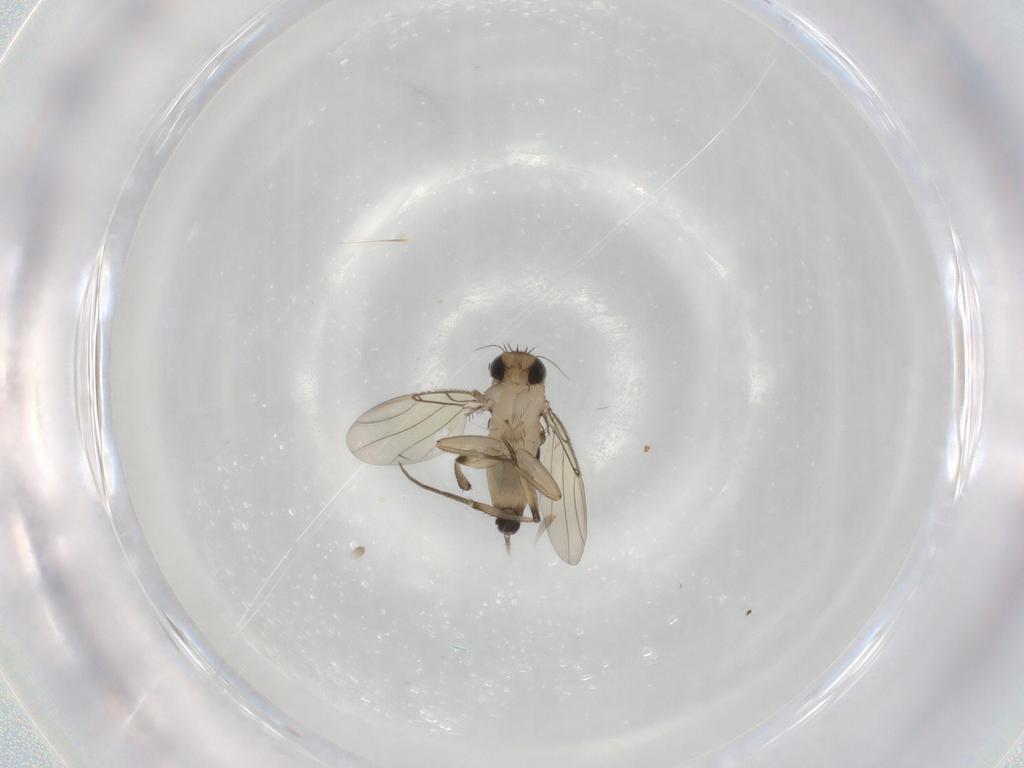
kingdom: Animalia
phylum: Arthropoda
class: Insecta
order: Diptera
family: Phoridae
